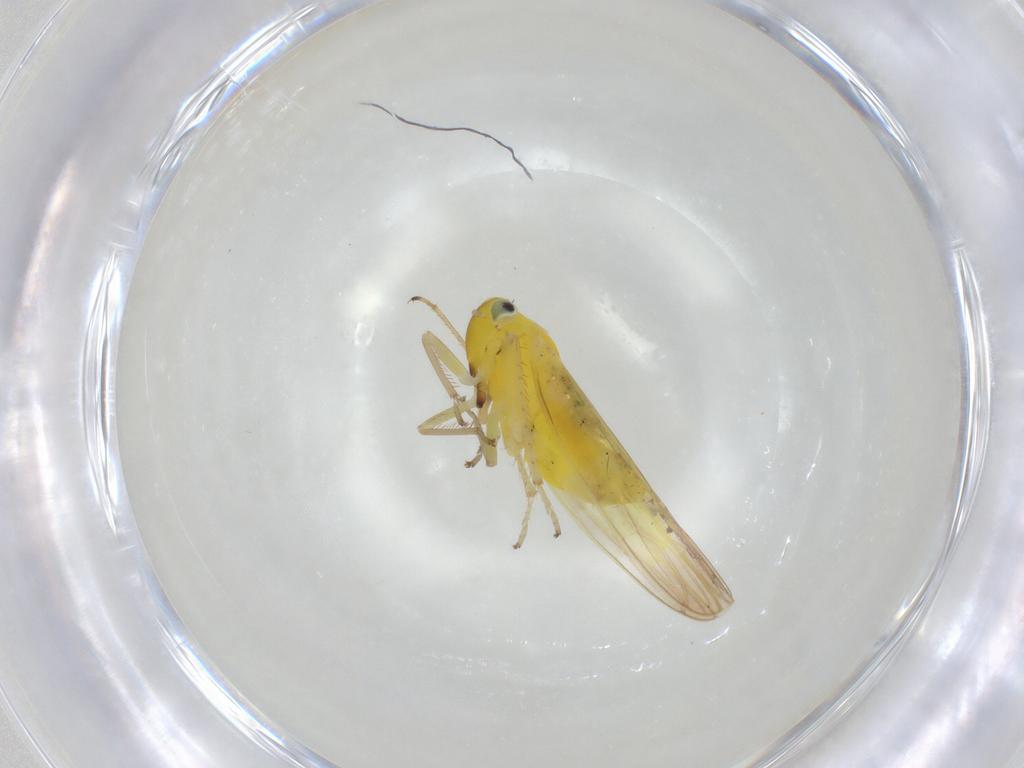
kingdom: Animalia
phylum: Arthropoda
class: Insecta
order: Hemiptera
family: Cicadellidae
